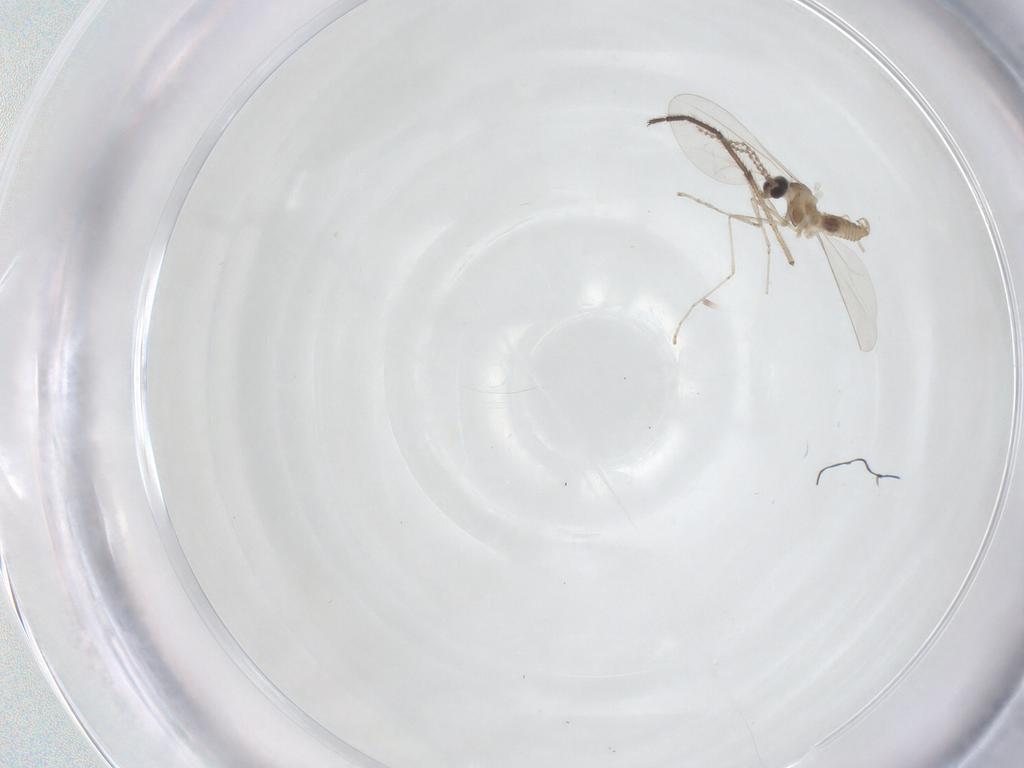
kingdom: Animalia
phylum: Arthropoda
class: Insecta
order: Diptera
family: Cecidomyiidae
